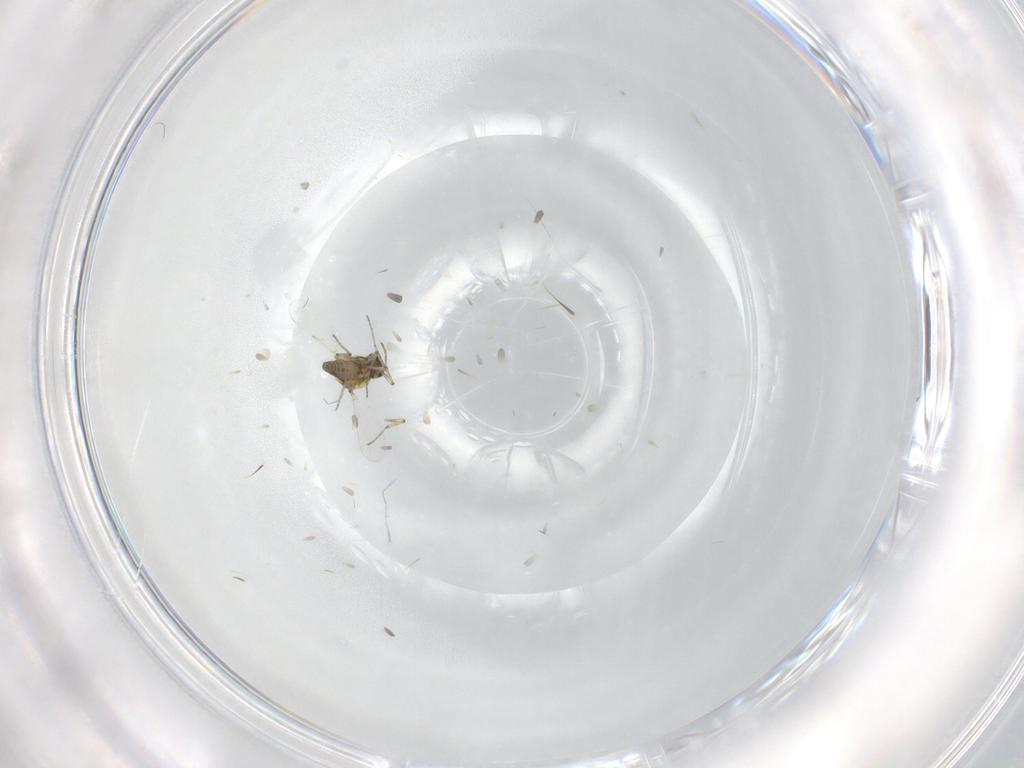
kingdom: Animalia
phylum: Arthropoda
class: Insecta
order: Diptera
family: Ceratopogonidae
